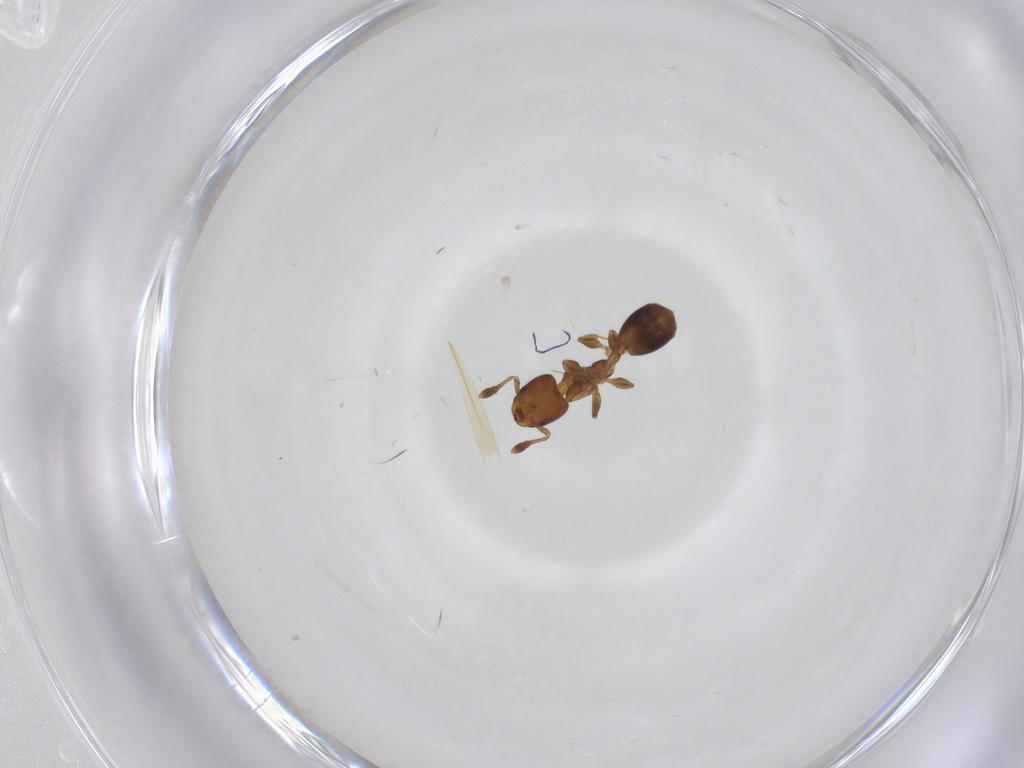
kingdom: Animalia
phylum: Arthropoda
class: Insecta
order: Hymenoptera
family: Formicidae
